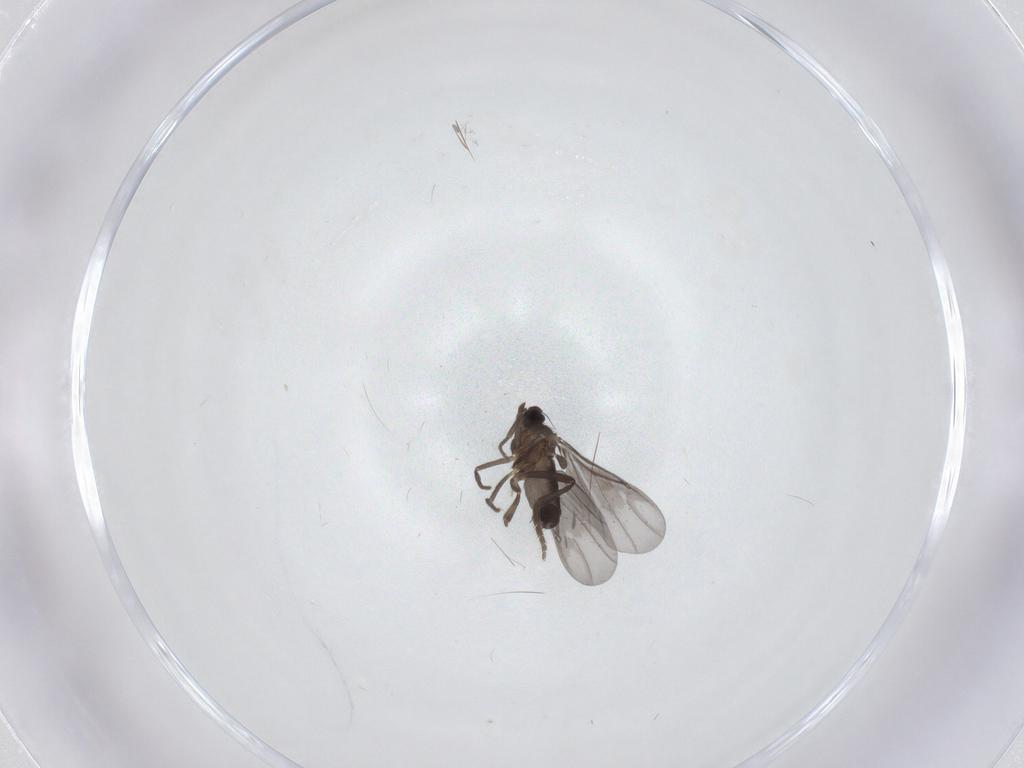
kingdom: Animalia
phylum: Arthropoda
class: Insecta
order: Diptera
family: Phoridae
